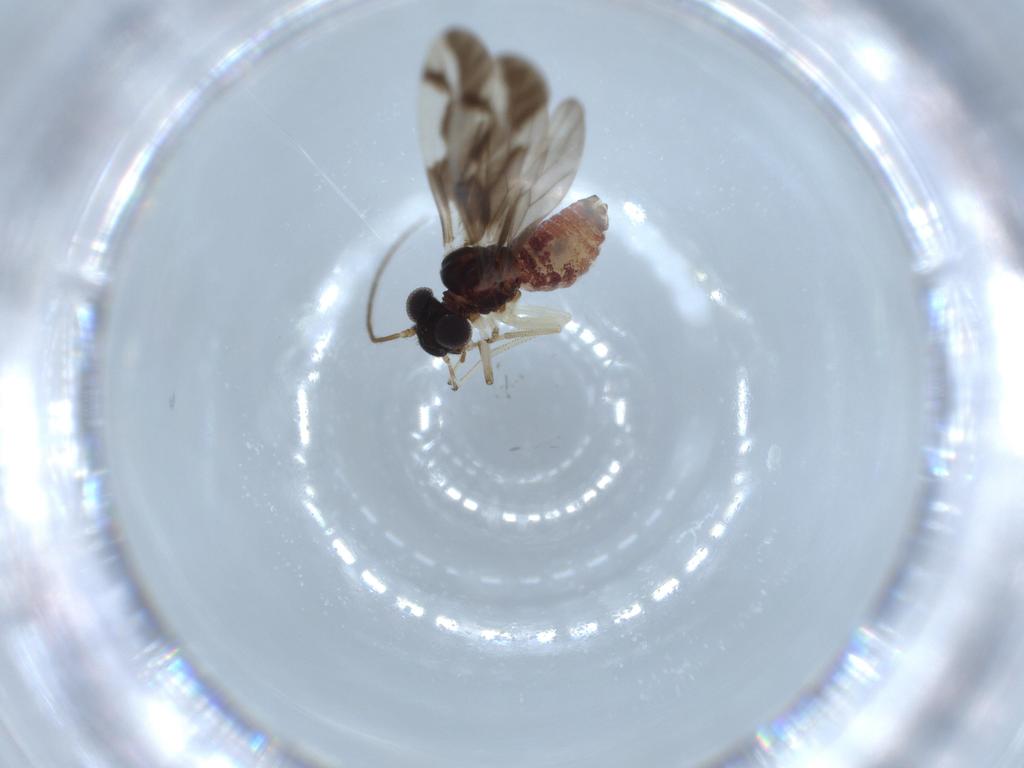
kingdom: Animalia
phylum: Arthropoda
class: Insecta
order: Psocodea
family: Caeciliusidae
